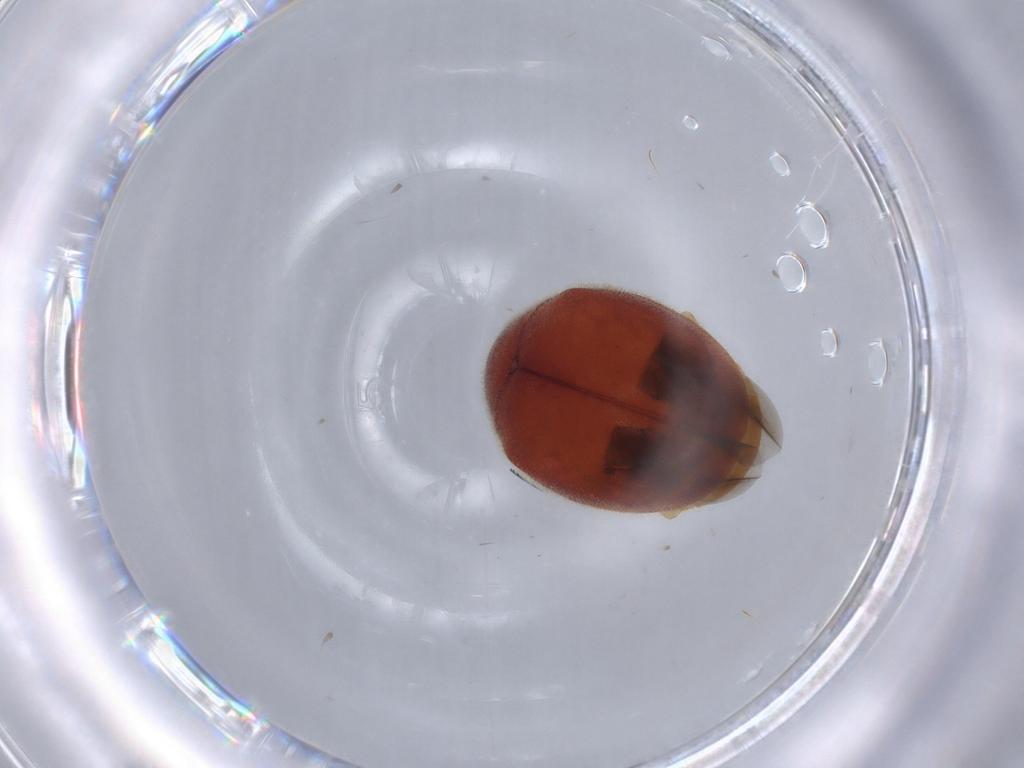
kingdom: Animalia
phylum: Arthropoda
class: Insecta
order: Coleoptera
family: Coccinellidae
